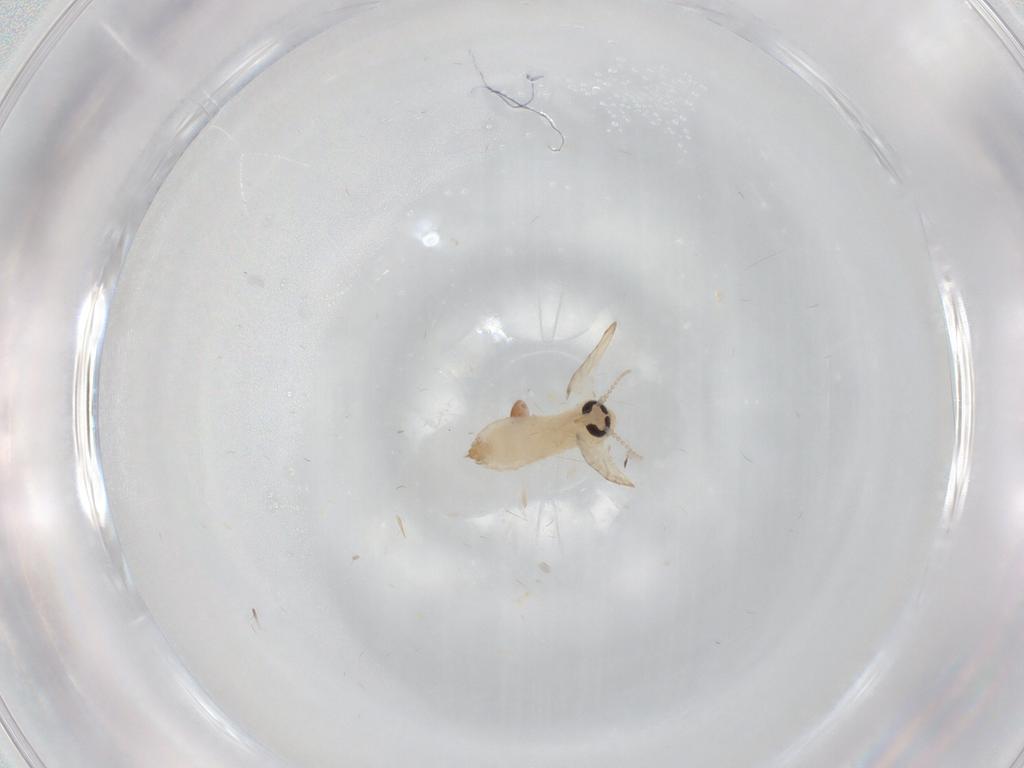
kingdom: Animalia
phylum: Arthropoda
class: Insecta
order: Diptera
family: Psychodidae
